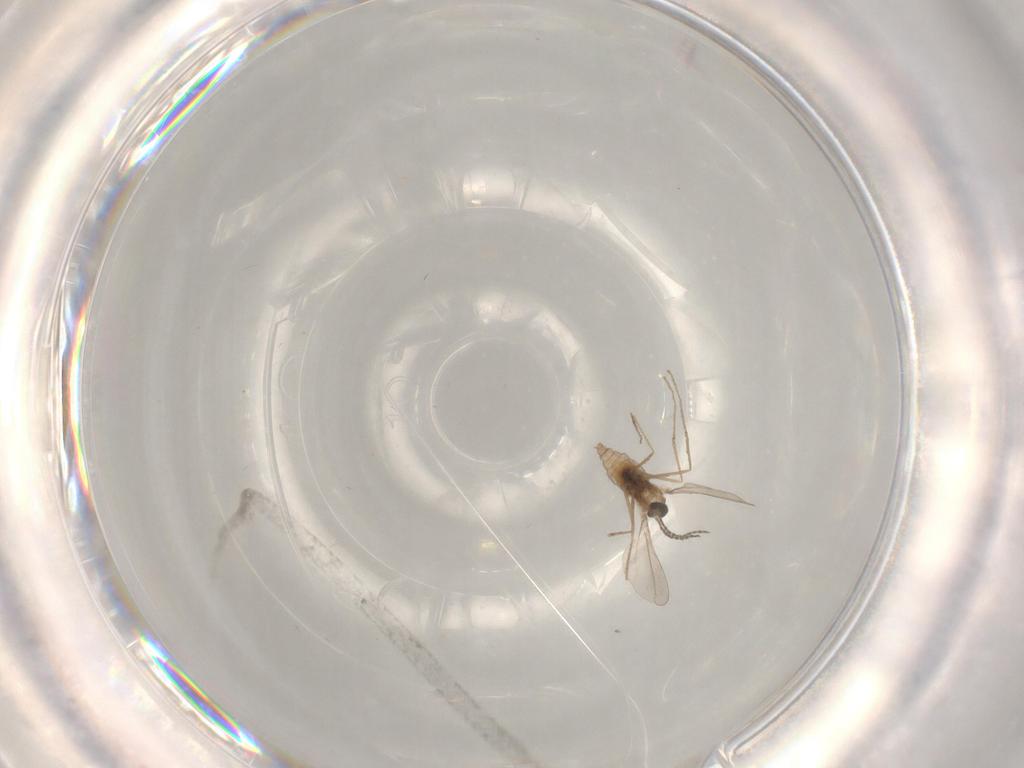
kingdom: Animalia
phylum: Arthropoda
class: Insecta
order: Diptera
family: Cecidomyiidae
